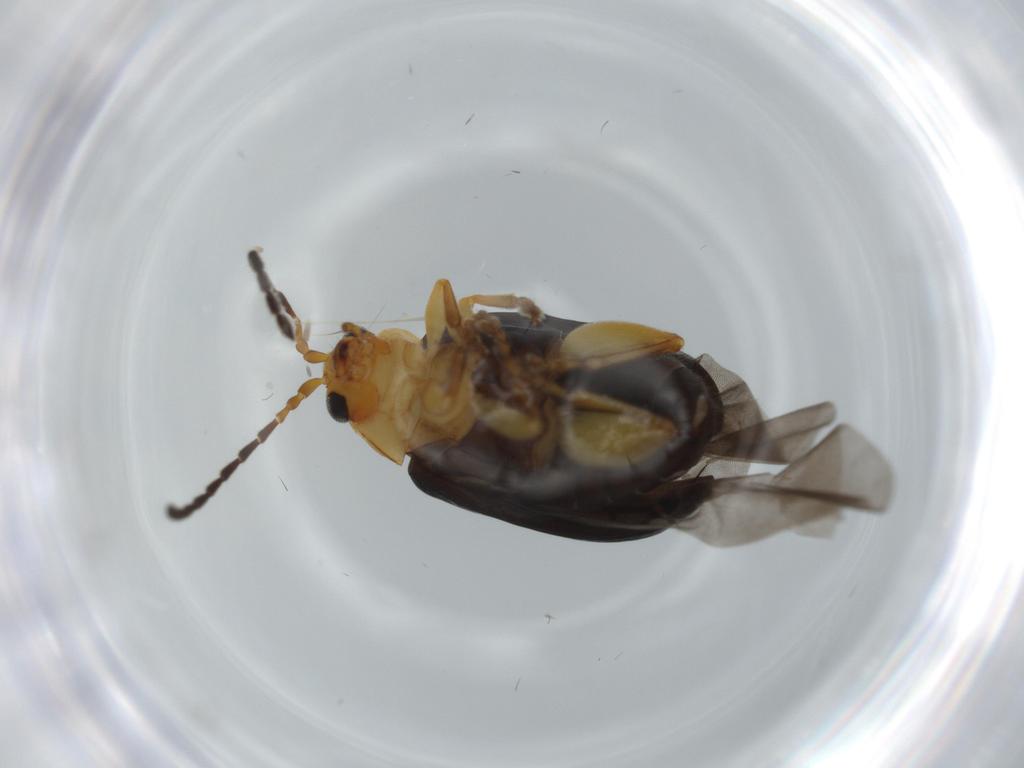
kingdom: Animalia
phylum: Arthropoda
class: Insecta
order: Coleoptera
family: Chrysomelidae
